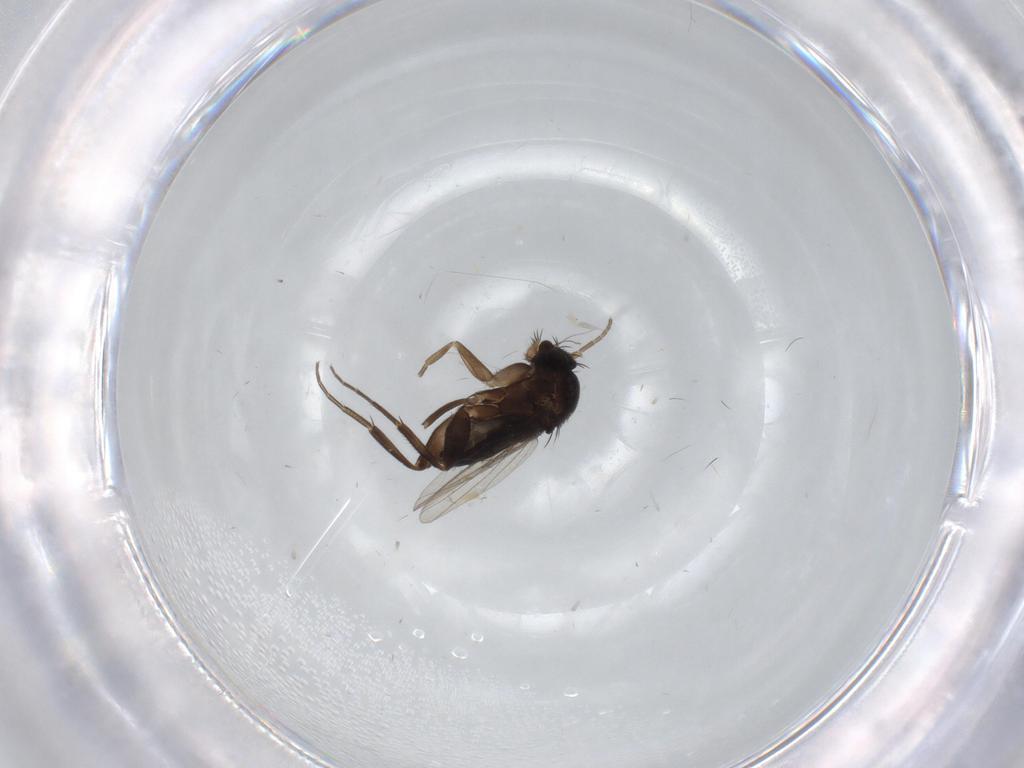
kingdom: Animalia
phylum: Arthropoda
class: Insecta
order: Diptera
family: Phoridae
